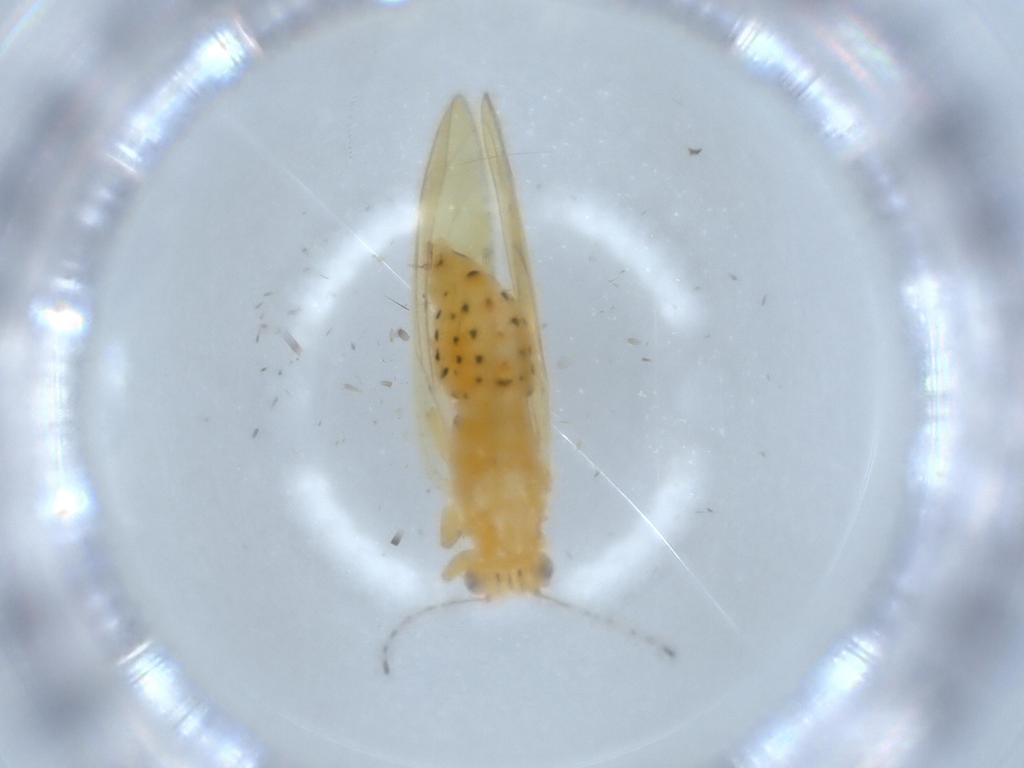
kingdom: Animalia
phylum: Arthropoda
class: Insecta
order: Hemiptera
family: Triozidae
